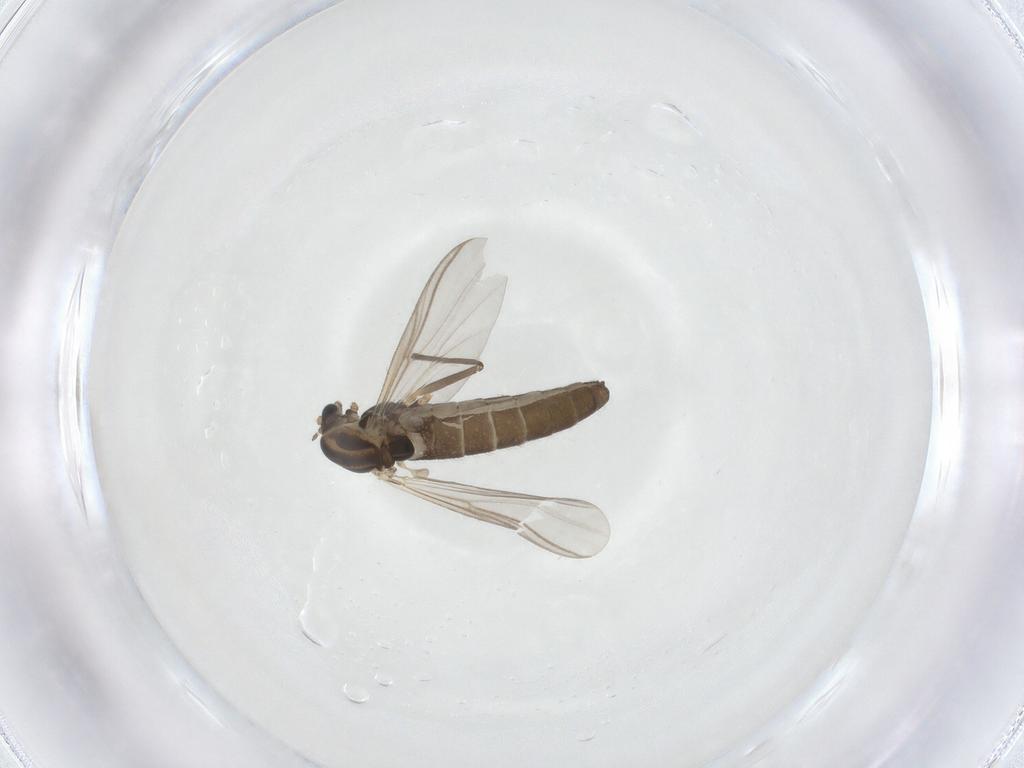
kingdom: Animalia
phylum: Arthropoda
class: Insecta
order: Diptera
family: Chironomidae
